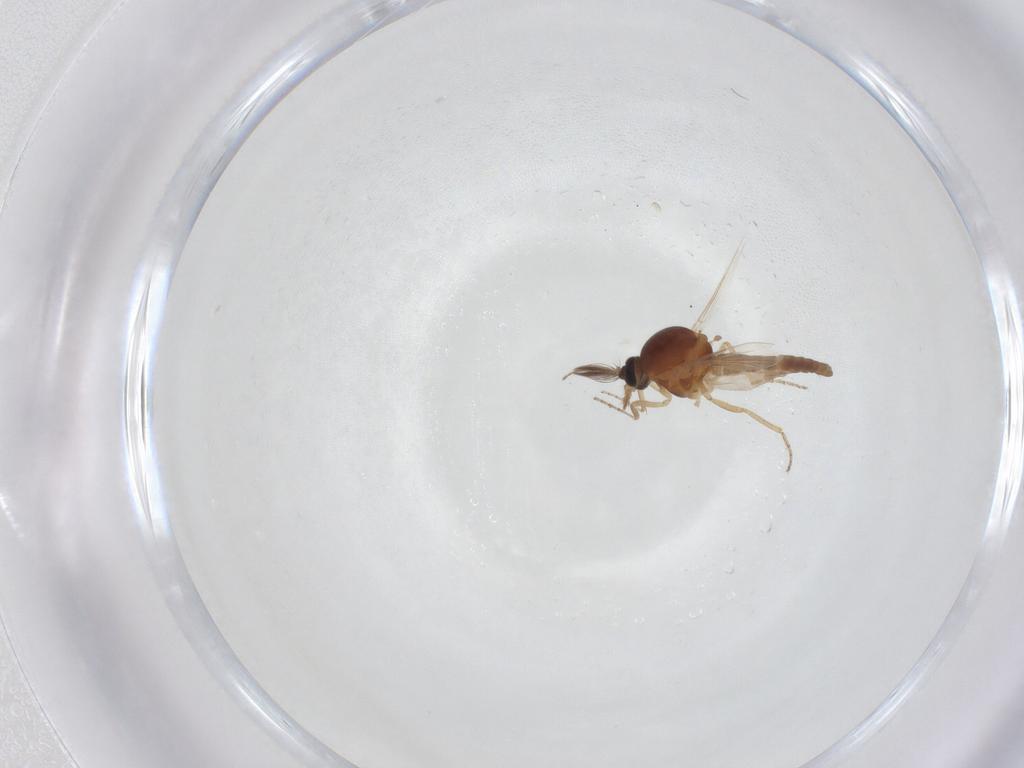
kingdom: Animalia
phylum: Arthropoda
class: Insecta
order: Diptera
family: Ceratopogonidae
